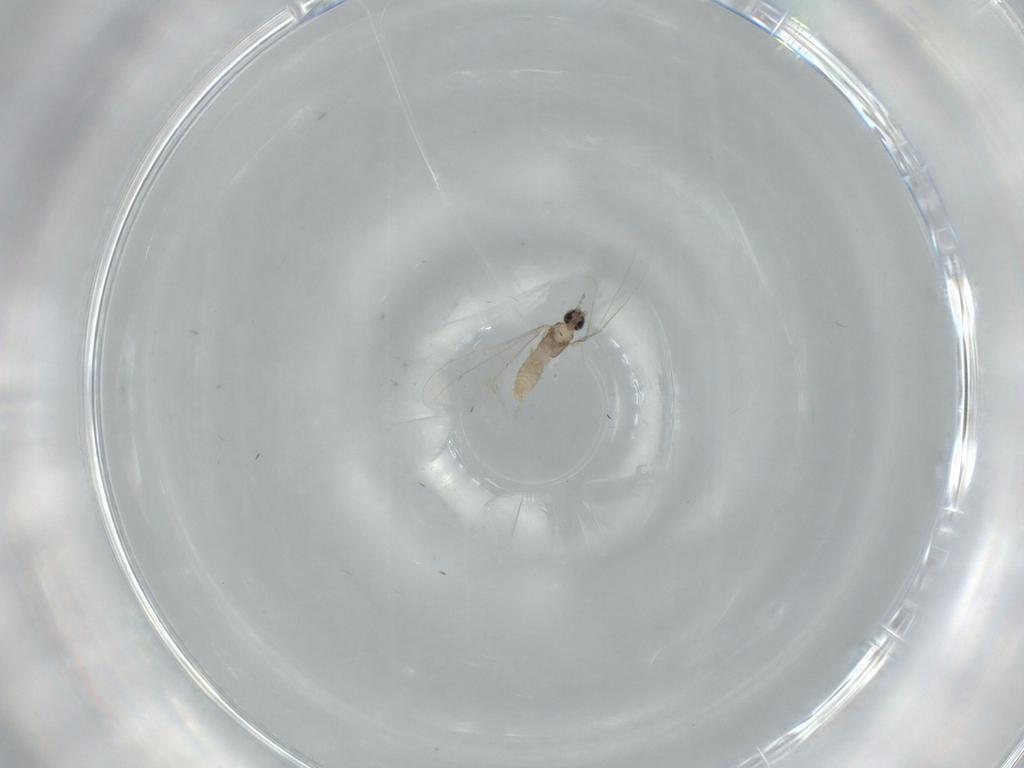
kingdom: Animalia
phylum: Arthropoda
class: Insecta
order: Diptera
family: Cecidomyiidae
